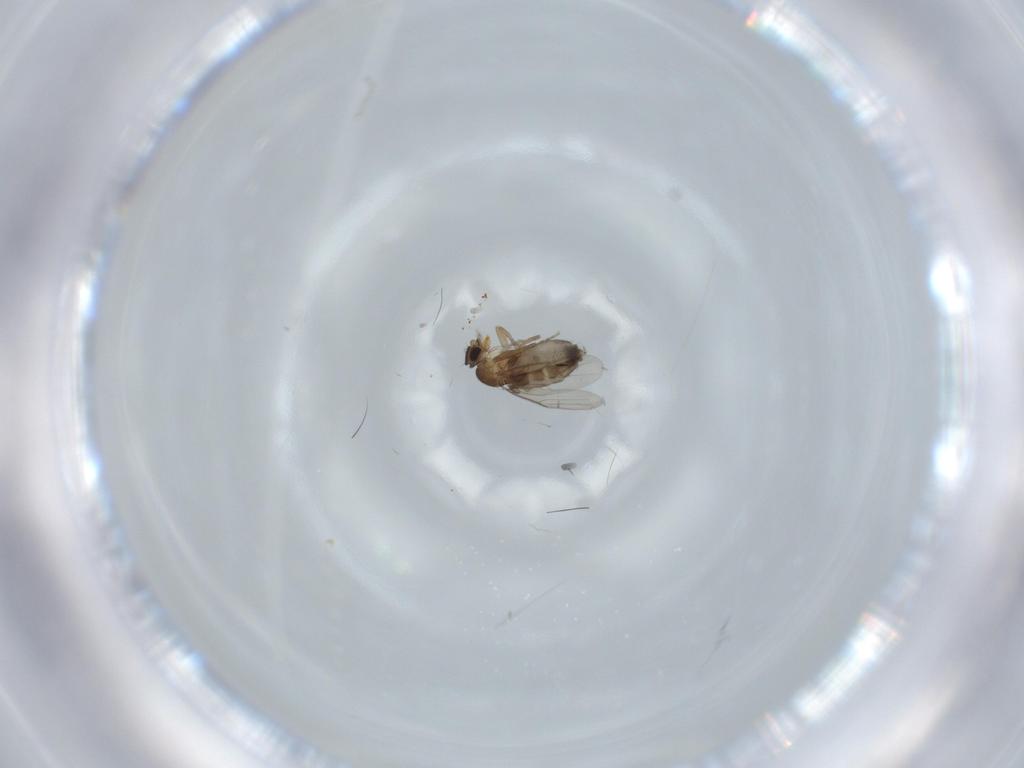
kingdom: Animalia
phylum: Arthropoda
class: Insecta
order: Diptera
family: Phoridae
